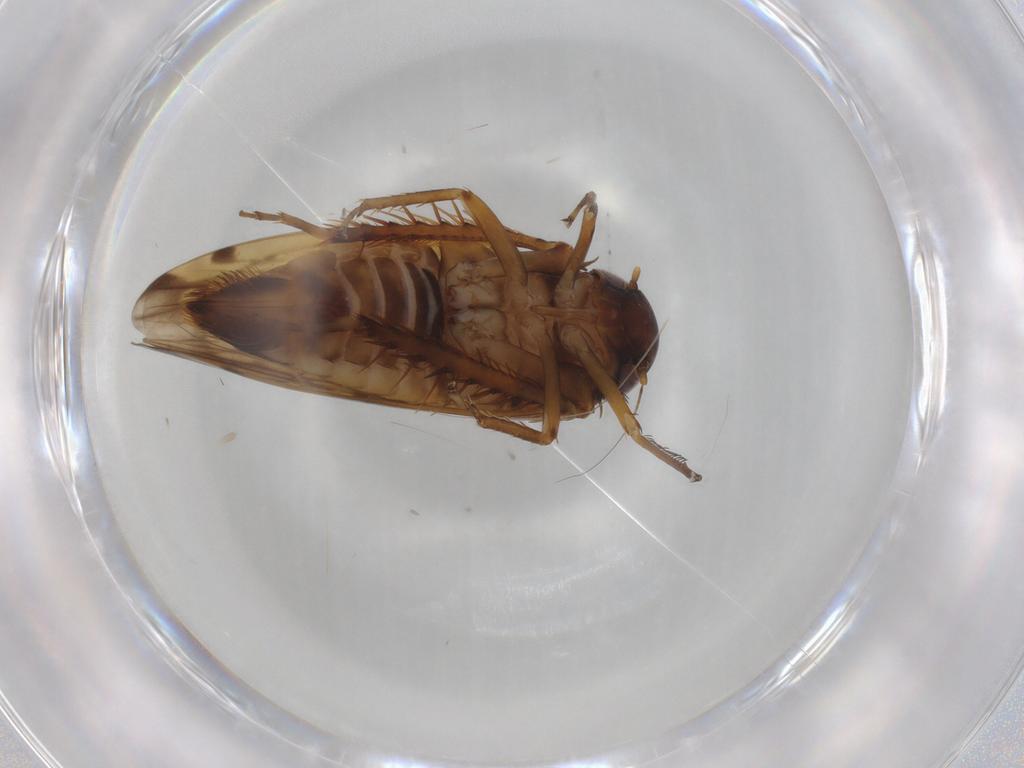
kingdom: Animalia
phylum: Arthropoda
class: Insecta
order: Hemiptera
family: Cicadellidae
